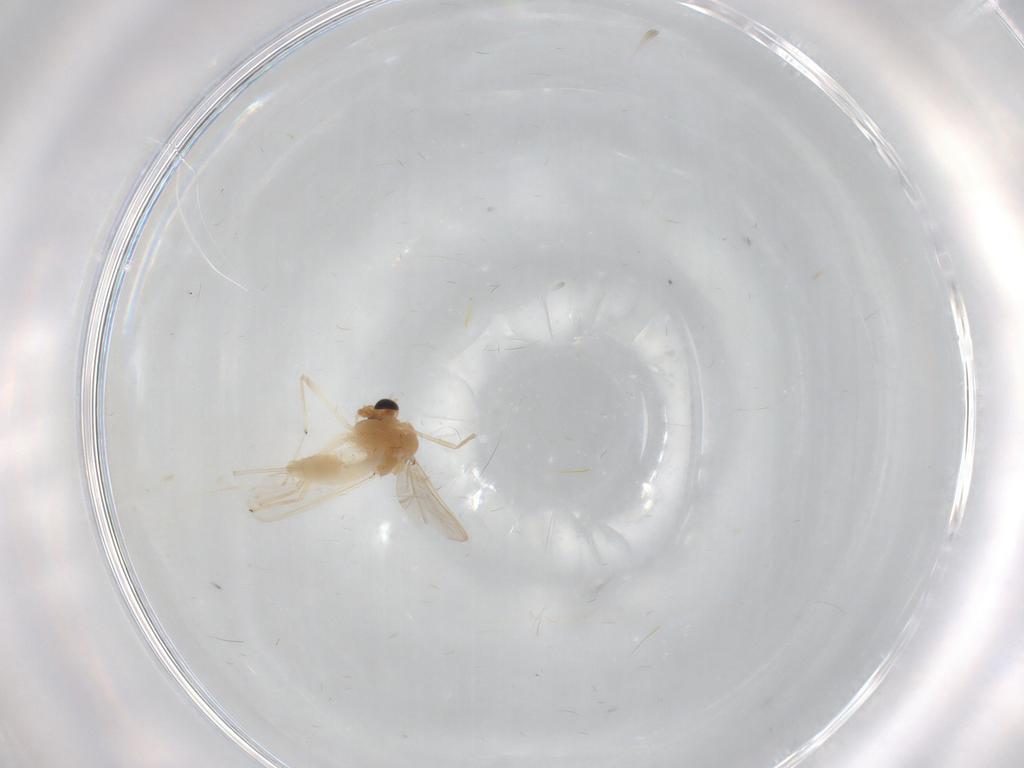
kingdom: Animalia
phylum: Arthropoda
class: Insecta
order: Diptera
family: Chironomidae
